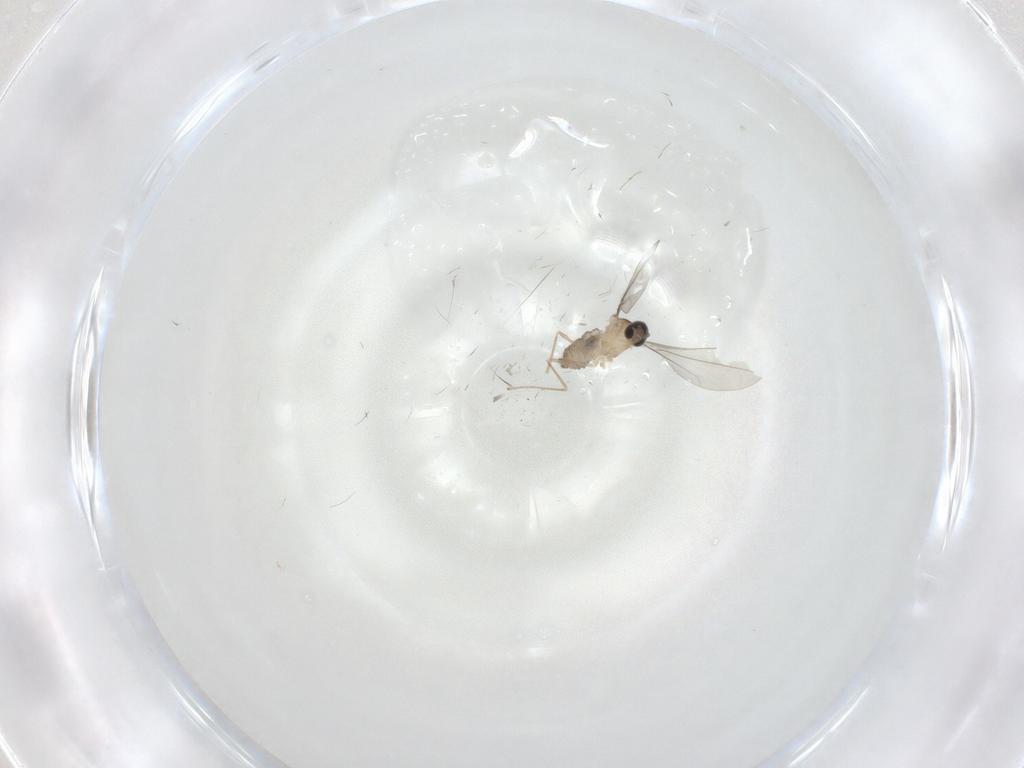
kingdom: Animalia
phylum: Arthropoda
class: Insecta
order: Diptera
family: Cecidomyiidae
